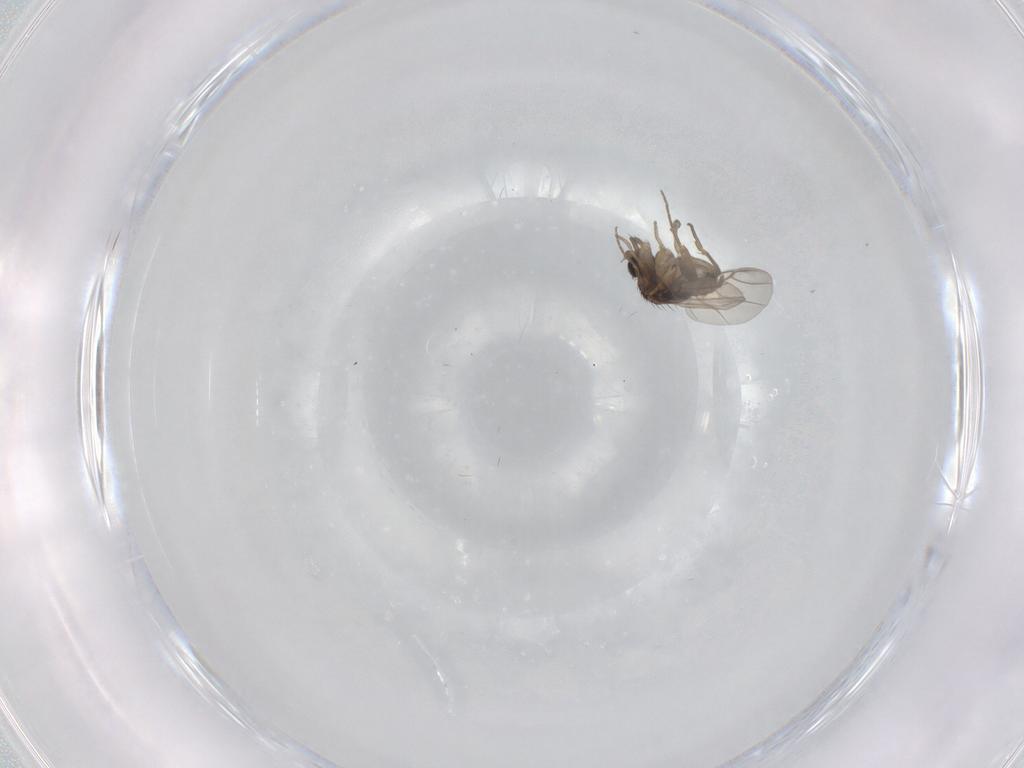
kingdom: Animalia
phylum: Arthropoda
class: Insecta
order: Diptera
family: Phoridae
